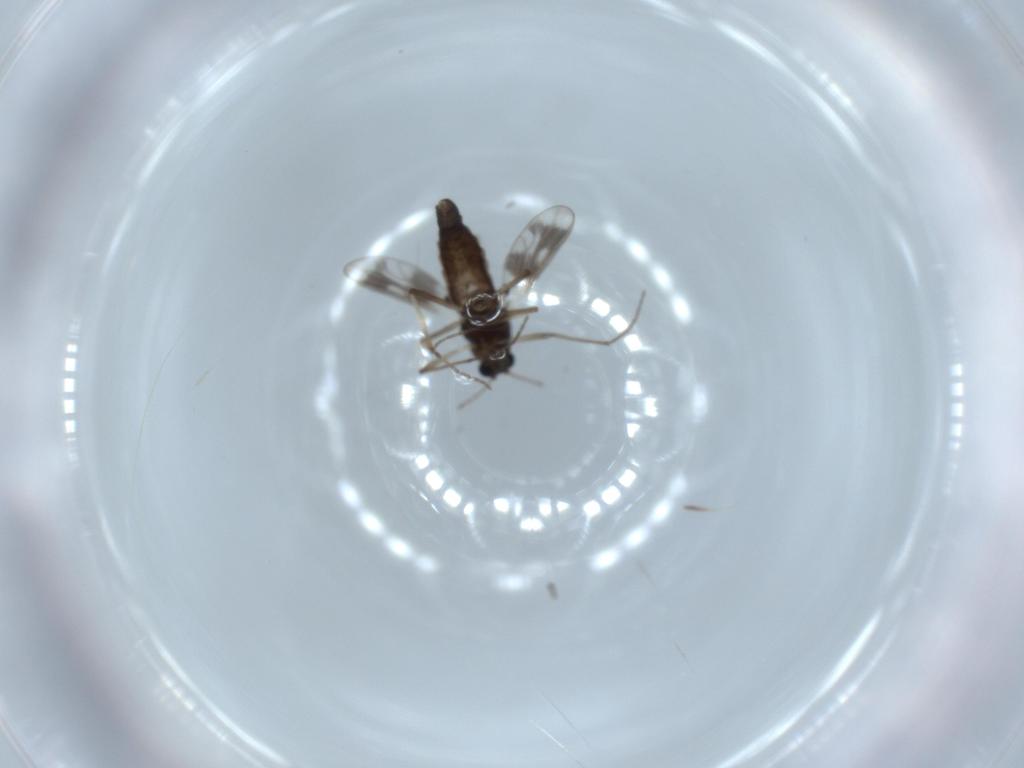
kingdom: Animalia
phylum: Arthropoda
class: Insecta
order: Diptera
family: Chironomidae
